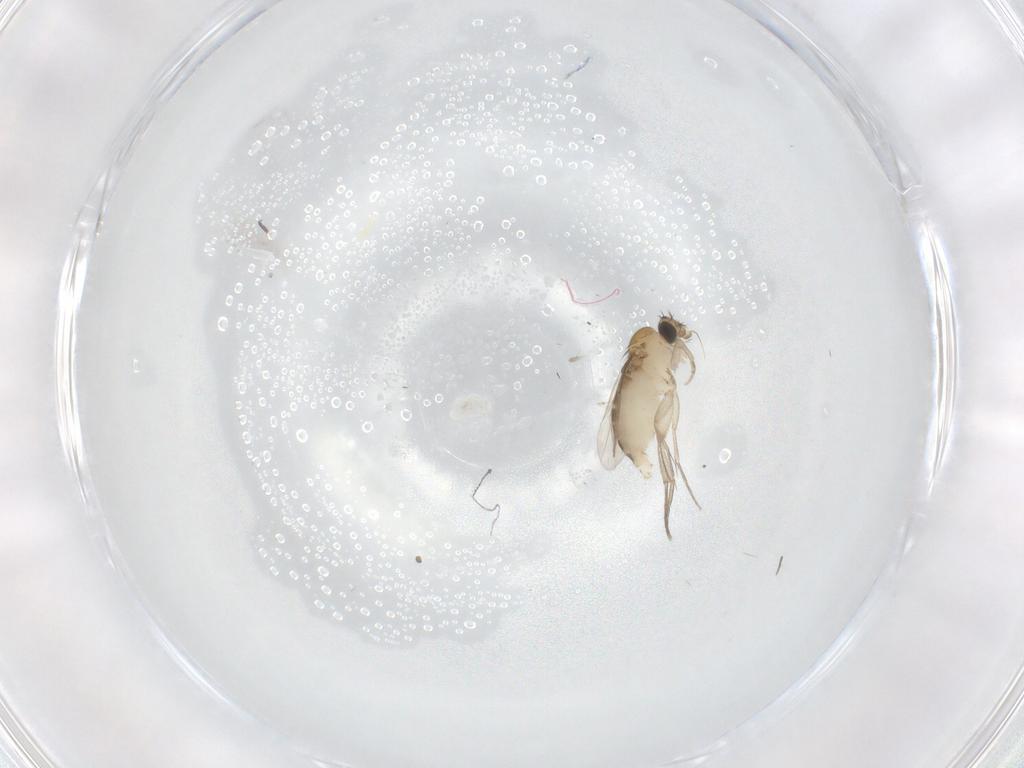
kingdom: Animalia
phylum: Arthropoda
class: Insecta
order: Diptera
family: Phoridae
